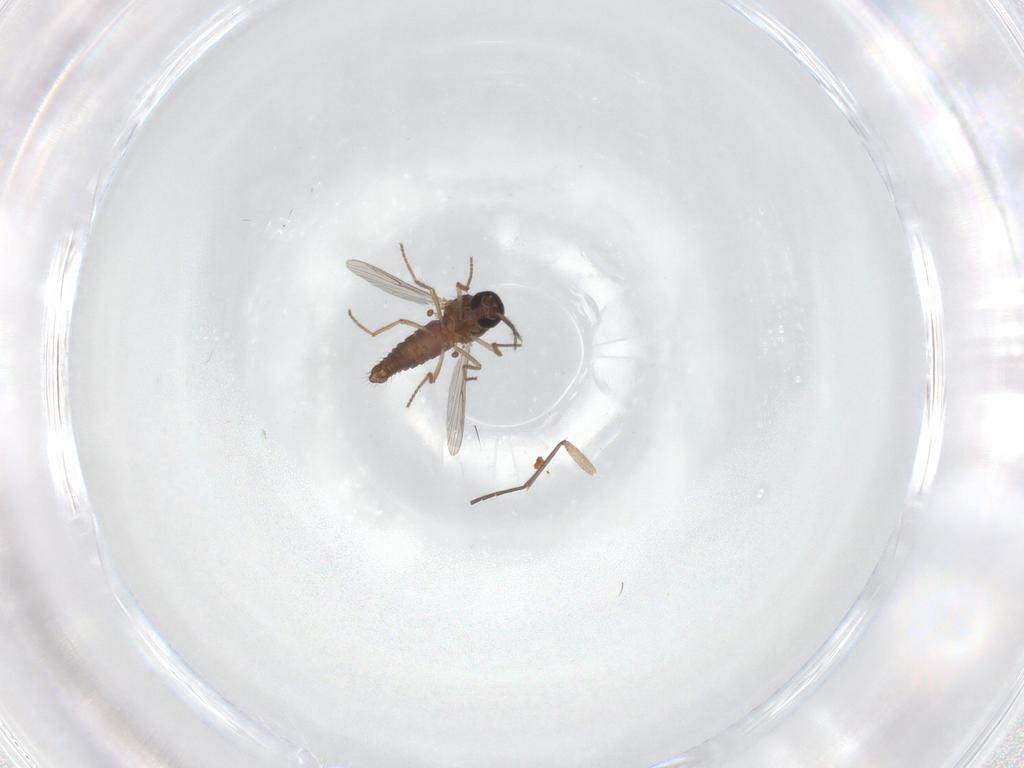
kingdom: Animalia
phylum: Arthropoda
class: Insecta
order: Diptera
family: Ceratopogonidae
